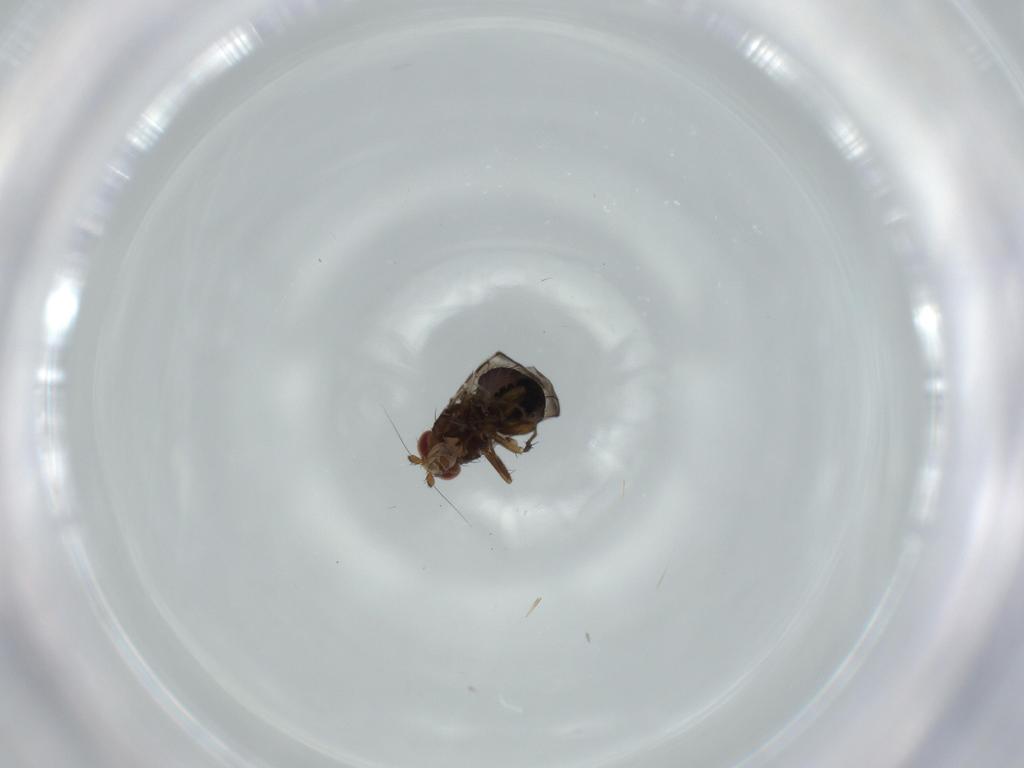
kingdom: Animalia
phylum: Arthropoda
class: Insecta
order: Diptera
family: Sphaeroceridae
